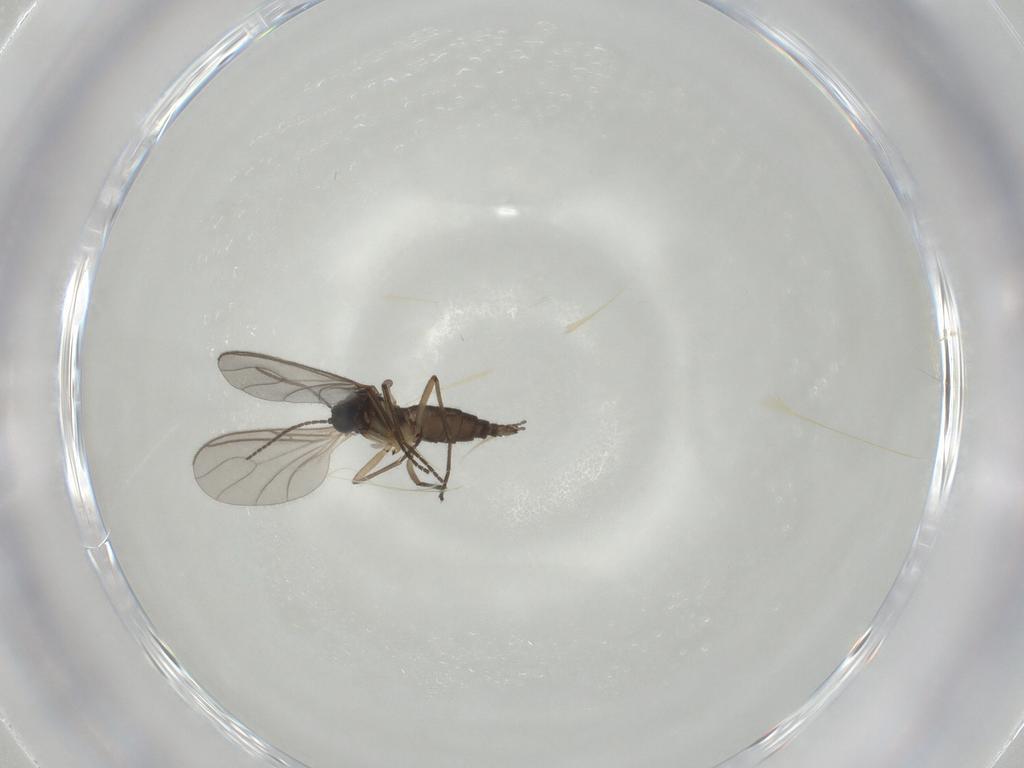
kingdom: Animalia
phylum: Arthropoda
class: Insecta
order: Diptera
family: Sciaridae
